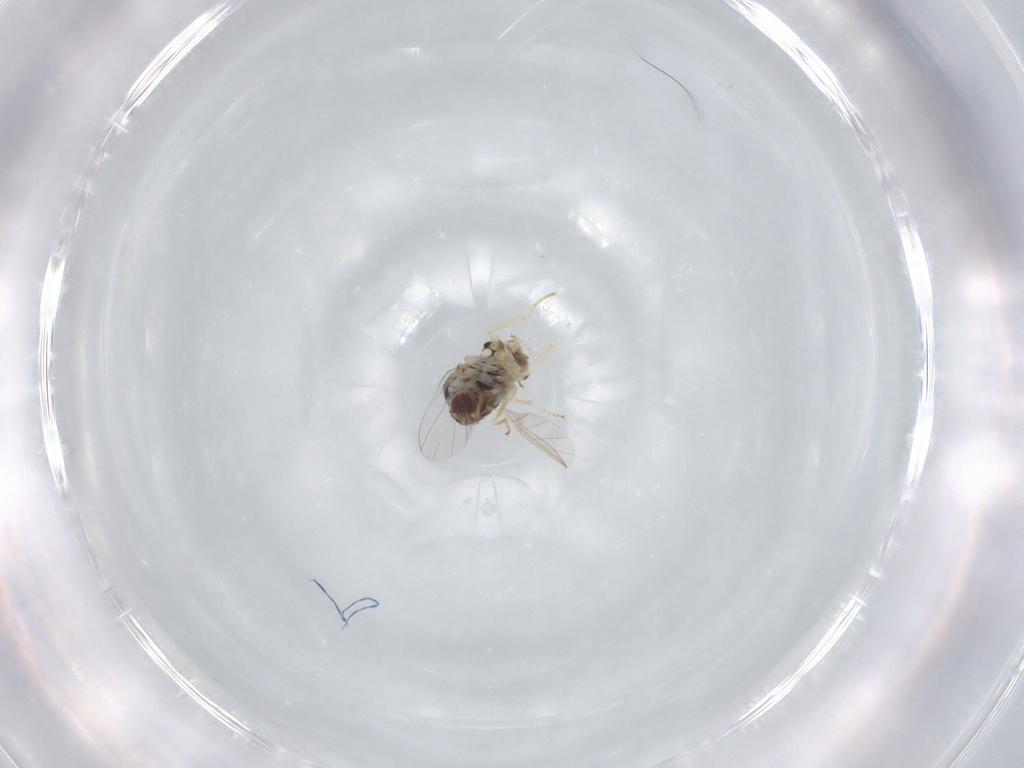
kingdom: Animalia
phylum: Arthropoda
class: Insecta
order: Diptera
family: Bombyliidae
